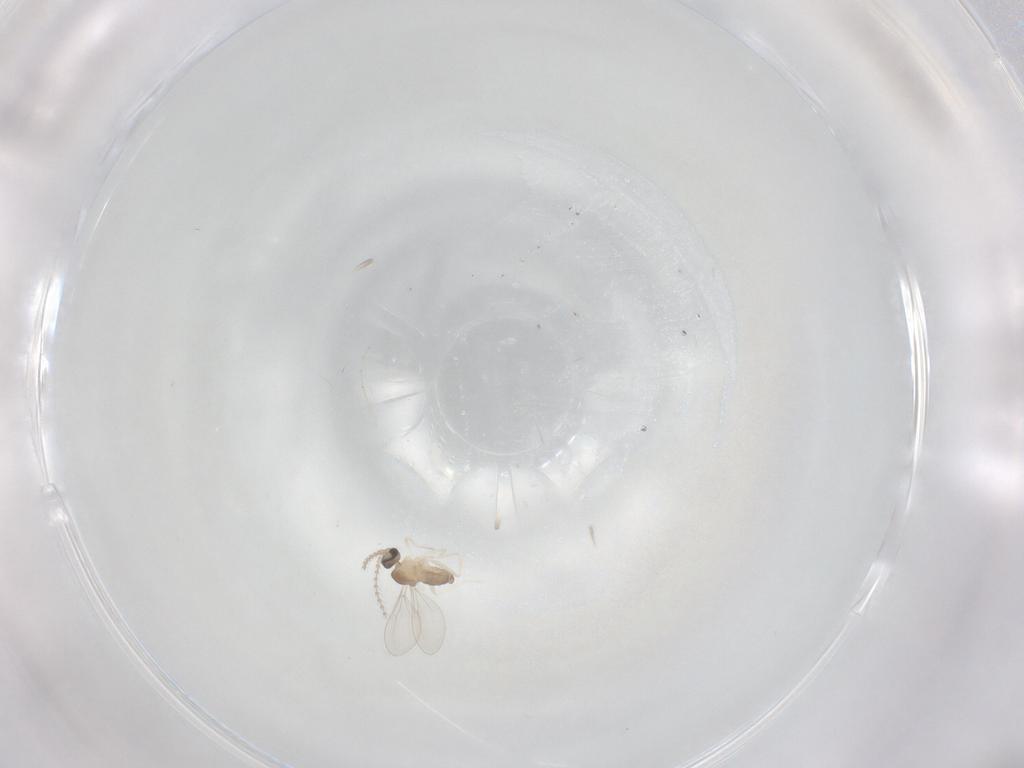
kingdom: Animalia
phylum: Arthropoda
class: Insecta
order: Diptera
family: Cecidomyiidae
